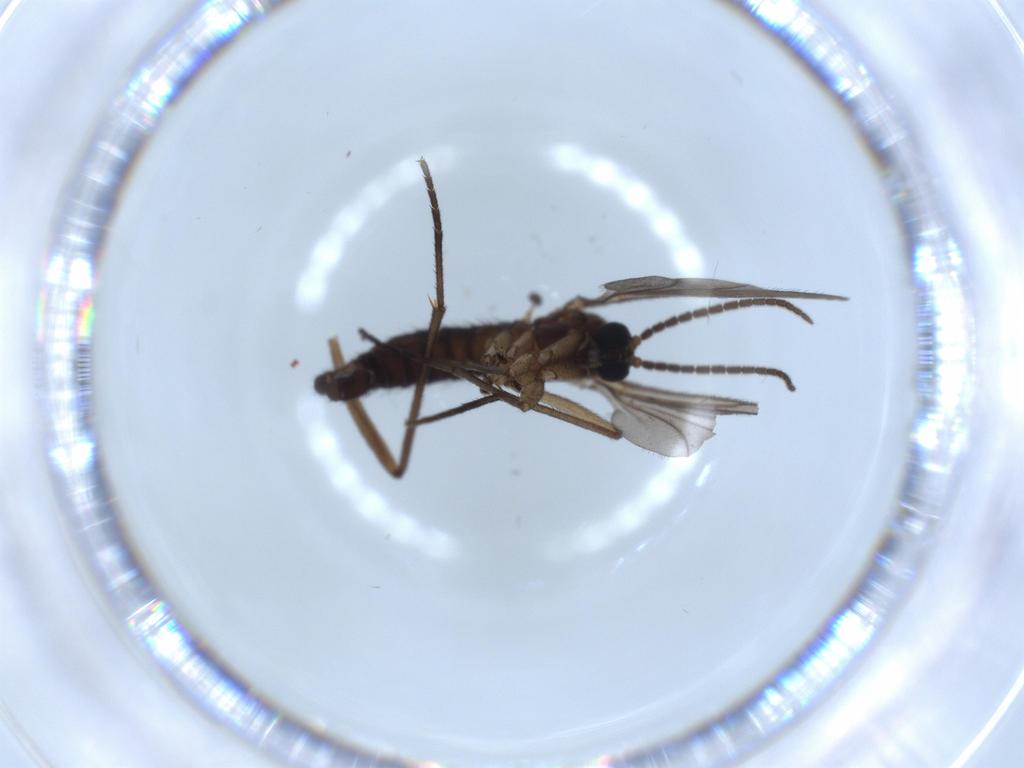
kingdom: Animalia
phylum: Arthropoda
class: Insecta
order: Diptera
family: Sciaridae
